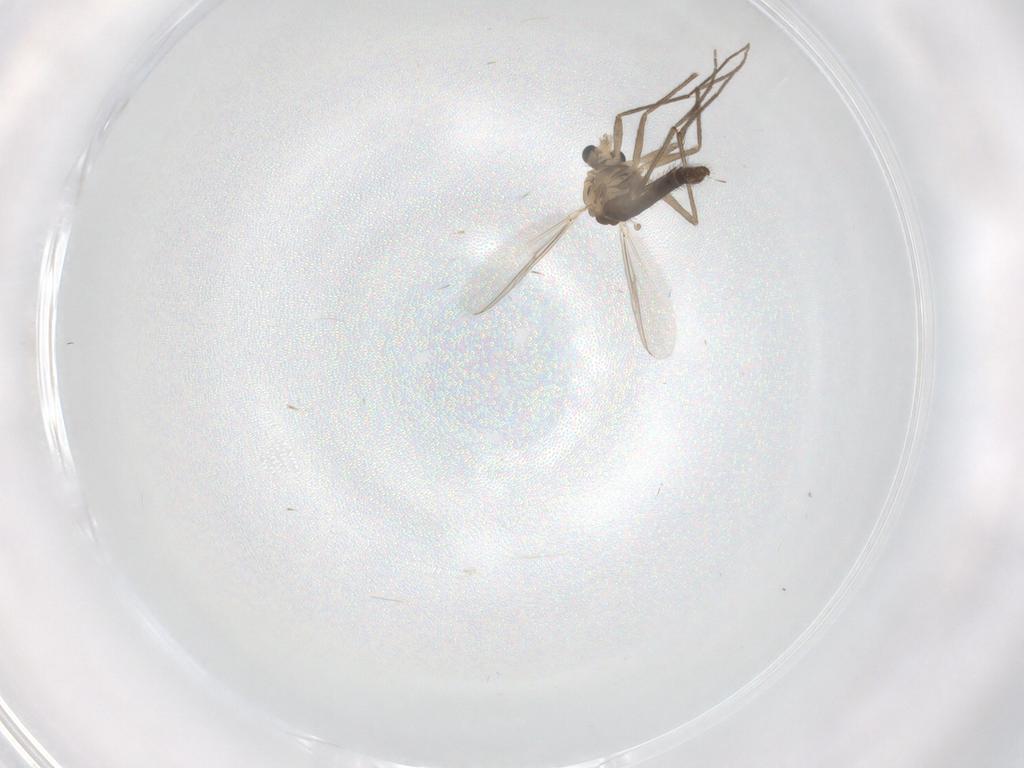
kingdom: Animalia
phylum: Arthropoda
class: Insecta
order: Diptera
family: Chironomidae
